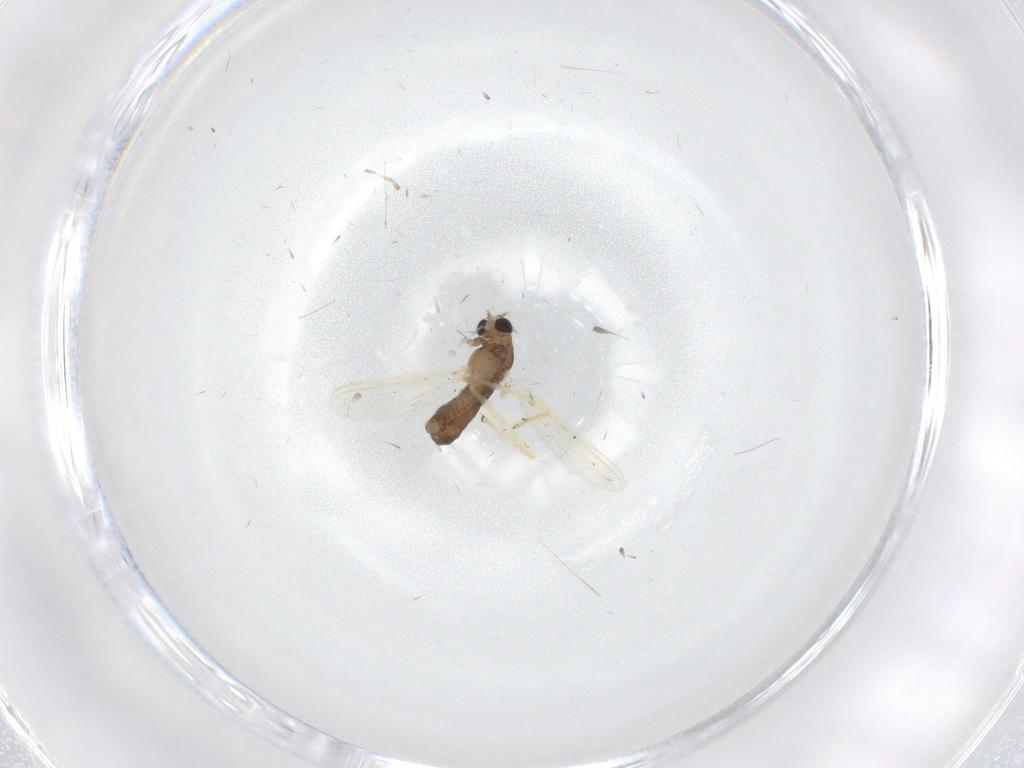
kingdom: Animalia
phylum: Arthropoda
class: Insecta
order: Diptera
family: Chironomidae
